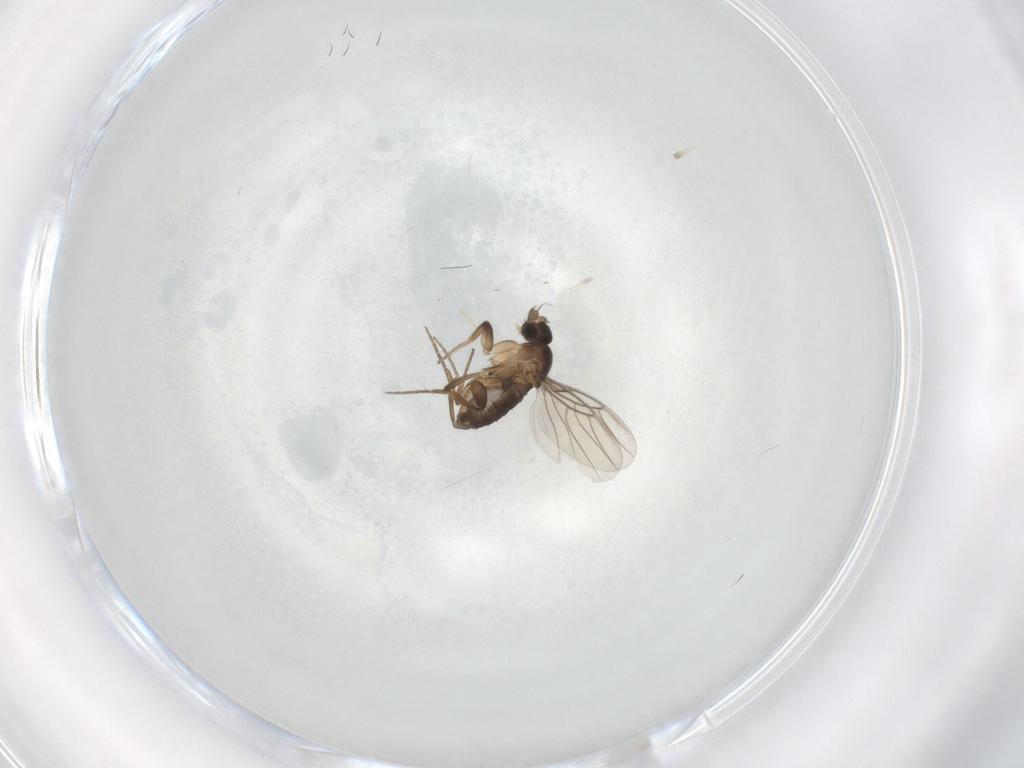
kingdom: Animalia
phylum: Arthropoda
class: Insecta
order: Diptera
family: Phoridae
